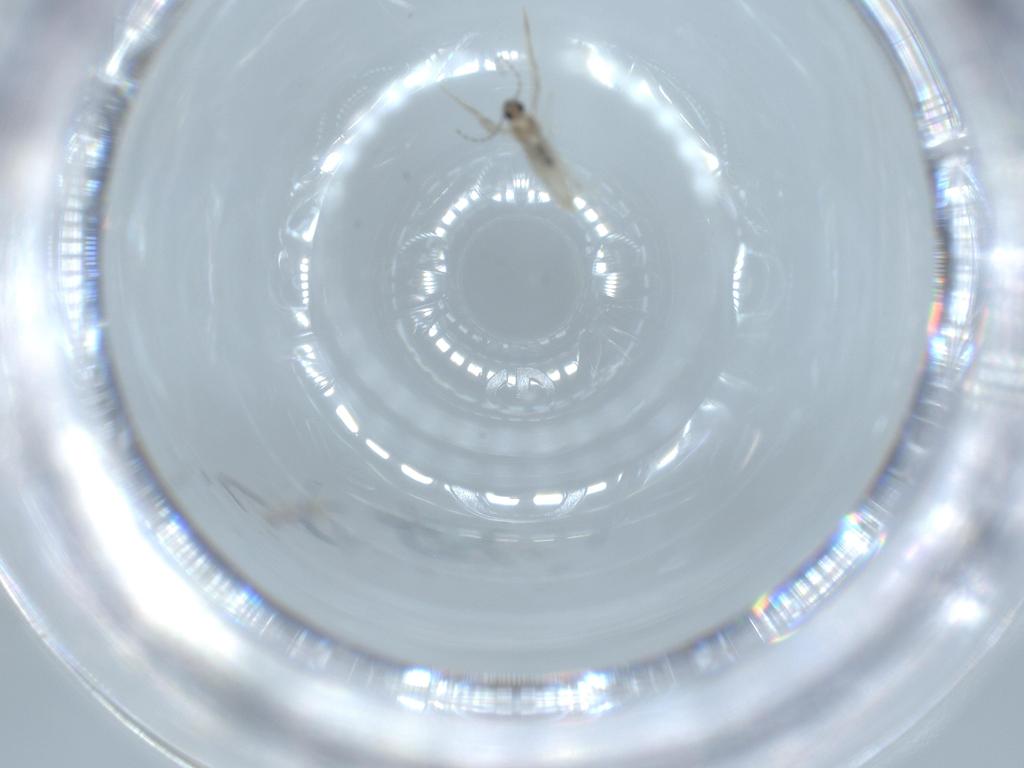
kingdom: Animalia
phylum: Arthropoda
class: Insecta
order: Diptera
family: Cecidomyiidae
